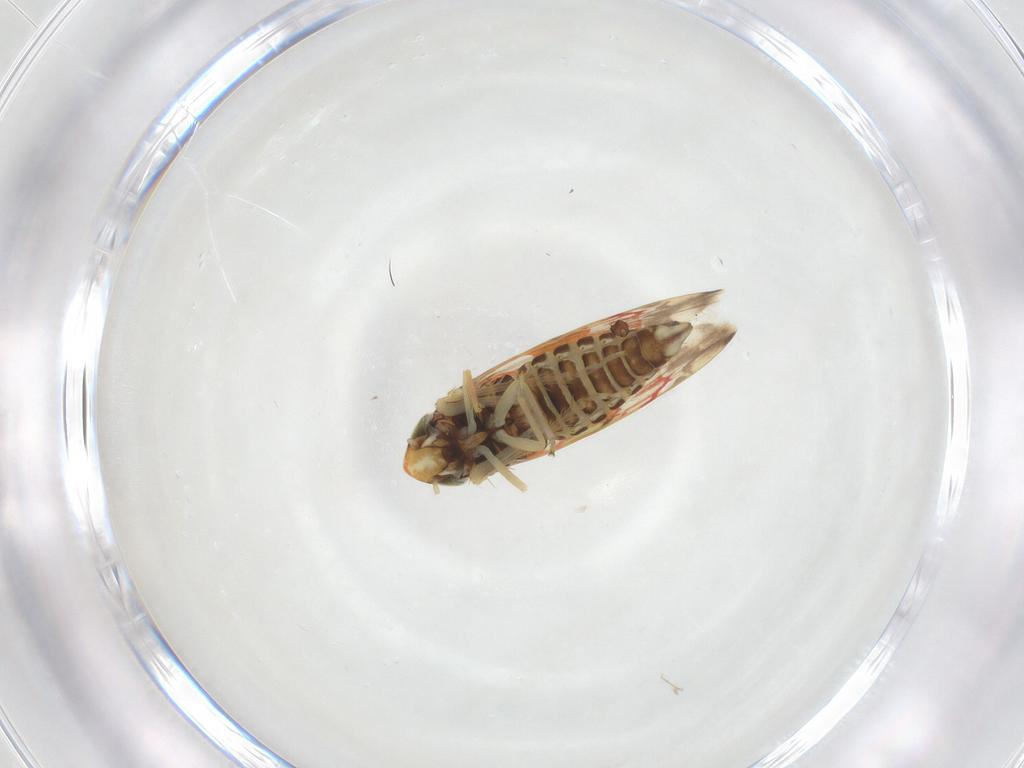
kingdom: Animalia
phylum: Arthropoda
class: Insecta
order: Hemiptera
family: Cicadellidae
